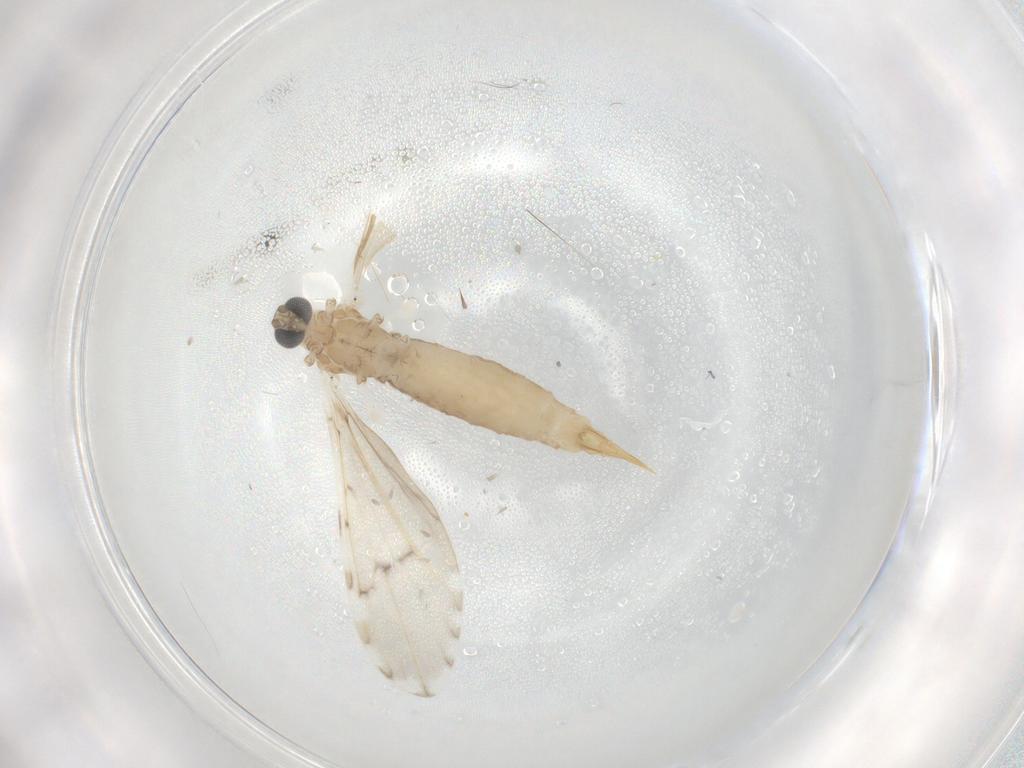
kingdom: Animalia
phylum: Arthropoda
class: Insecta
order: Diptera
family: Limoniidae
